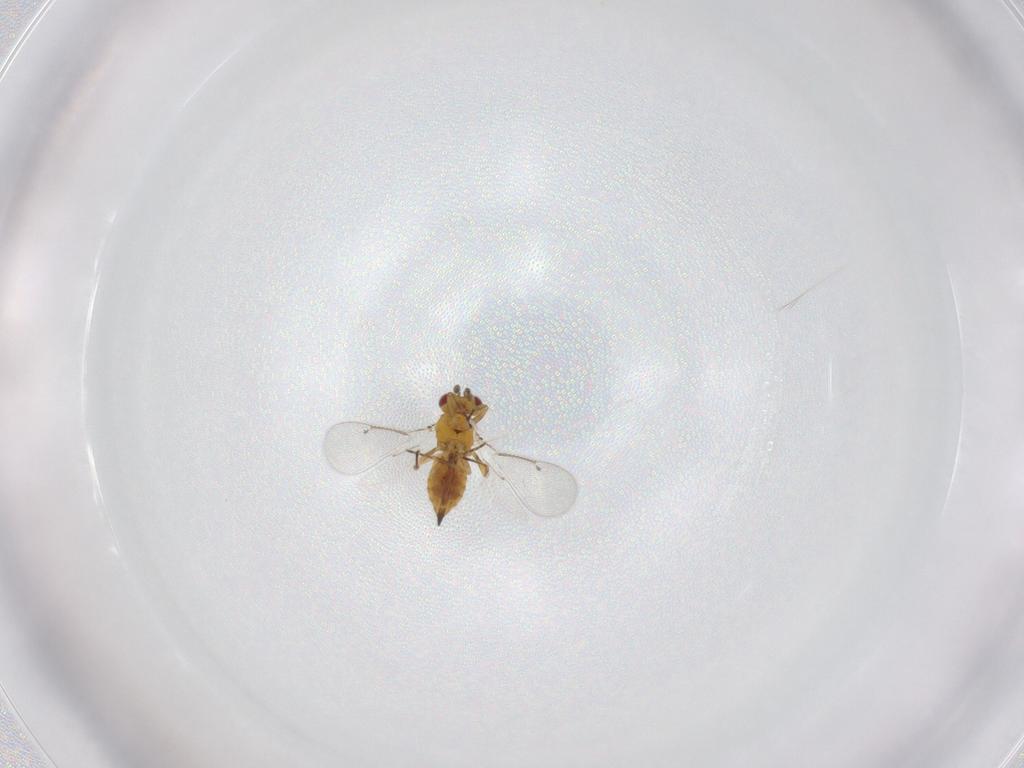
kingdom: Animalia
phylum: Arthropoda
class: Insecta
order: Hymenoptera
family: Eulophidae
